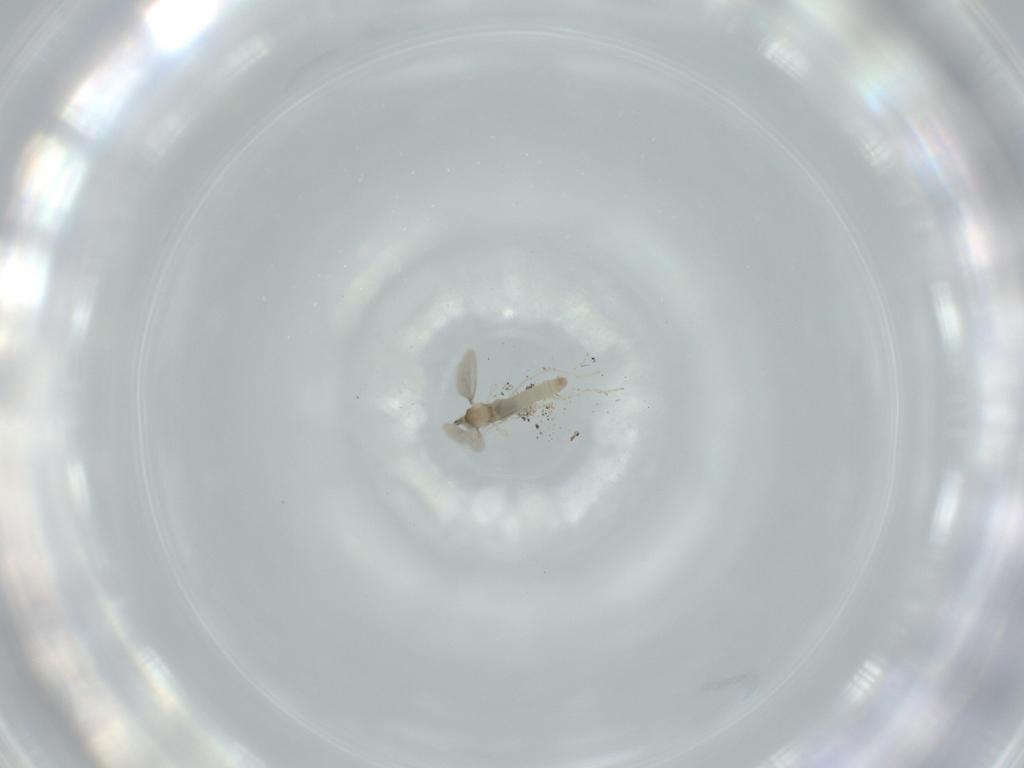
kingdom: Animalia
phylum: Arthropoda
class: Insecta
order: Diptera
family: Cecidomyiidae
